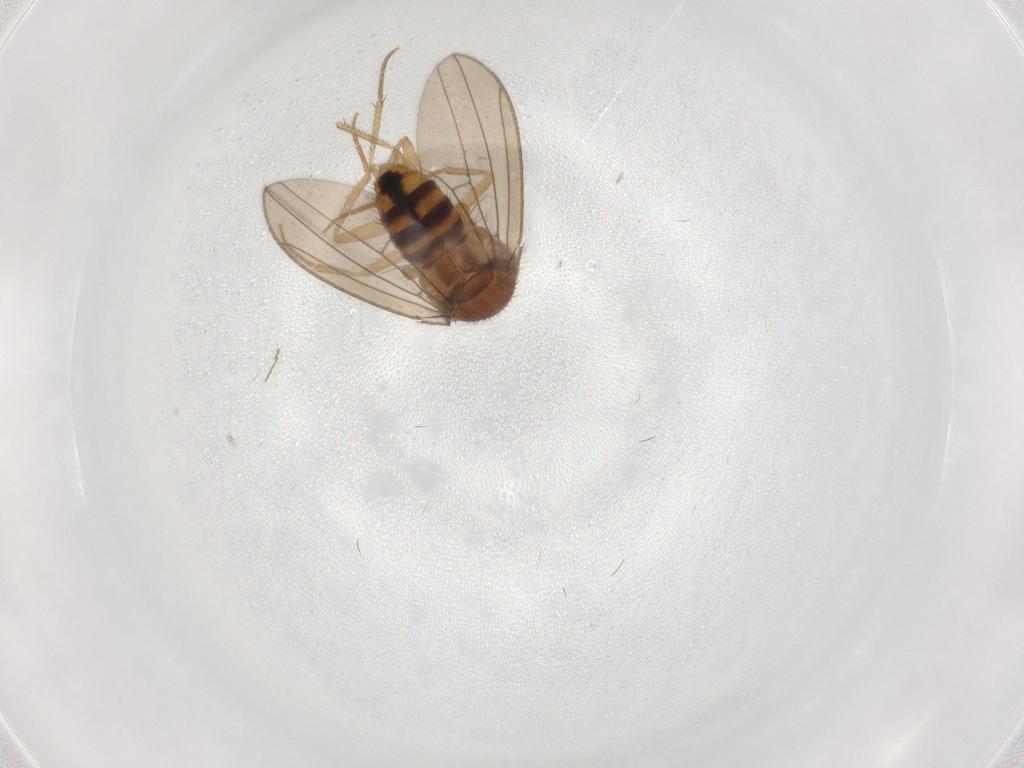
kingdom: Animalia
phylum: Arthropoda
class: Insecta
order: Diptera
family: Drosophilidae
